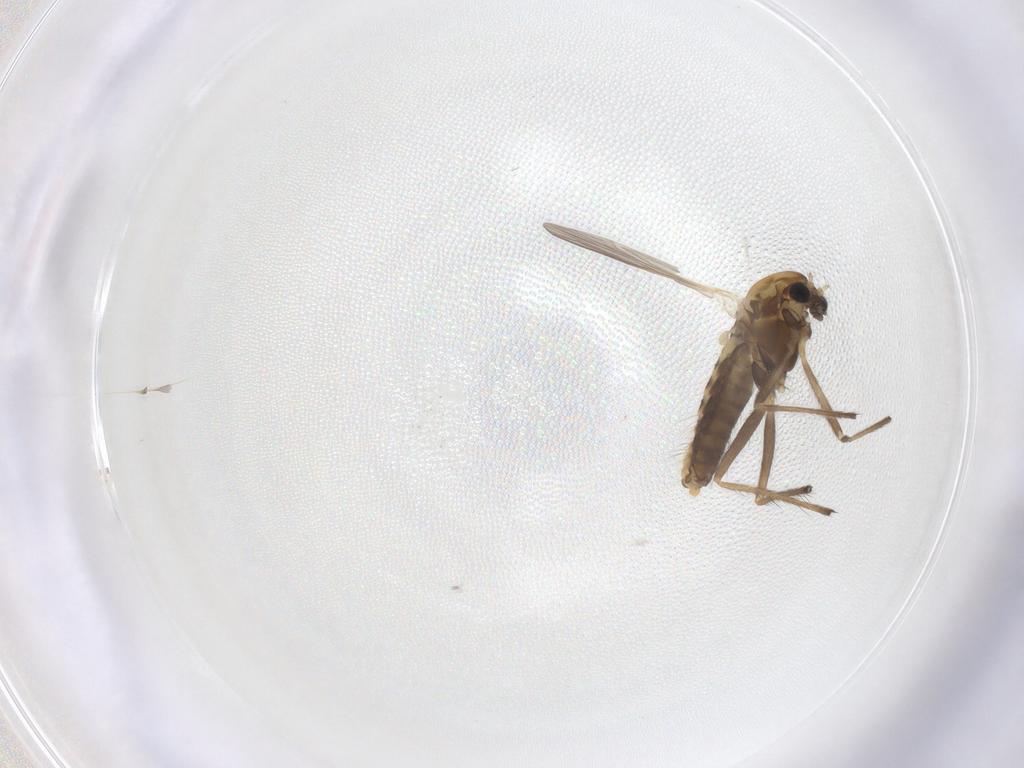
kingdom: Animalia
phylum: Arthropoda
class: Insecta
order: Diptera
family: Chironomidae
